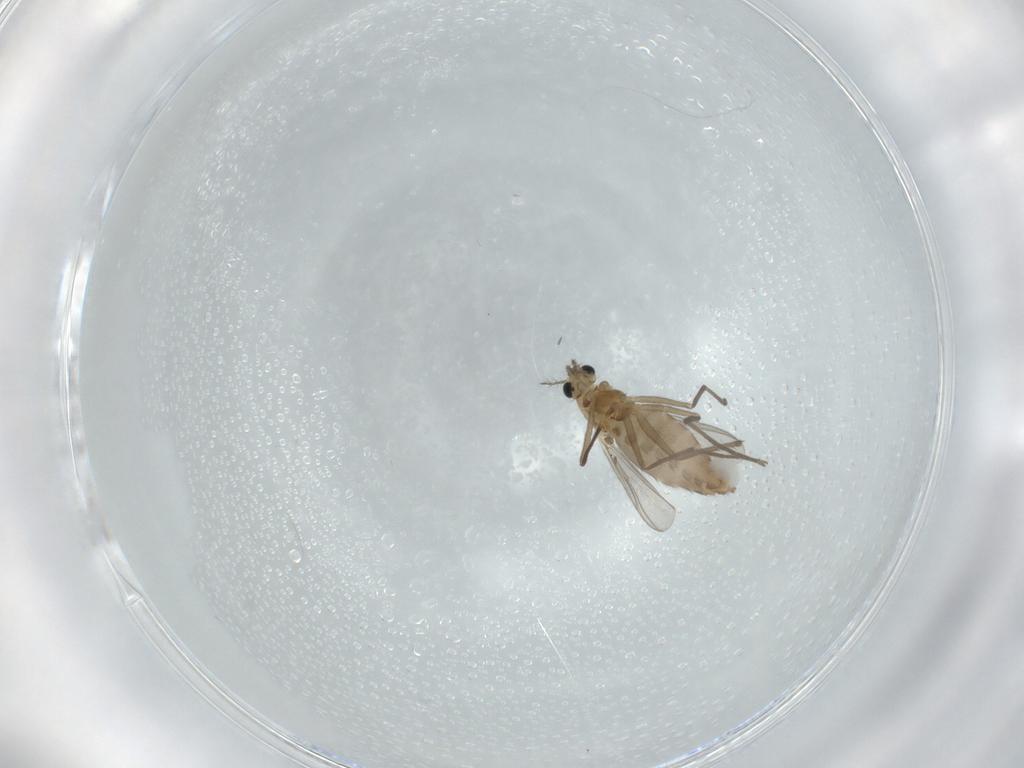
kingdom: Animalia
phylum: Arthropoda
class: Insecta
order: Diptera
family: Chironomidae
